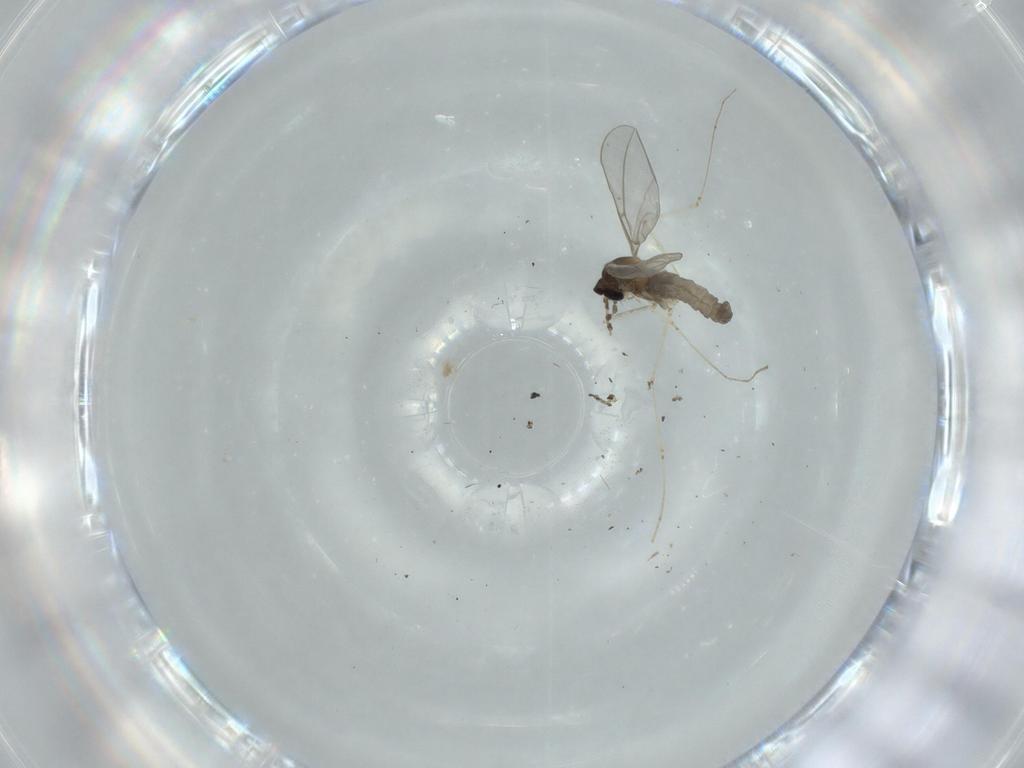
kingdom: Animalia
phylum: Arthropoda
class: Insecta
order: Diptera
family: Cecidomyiidae
